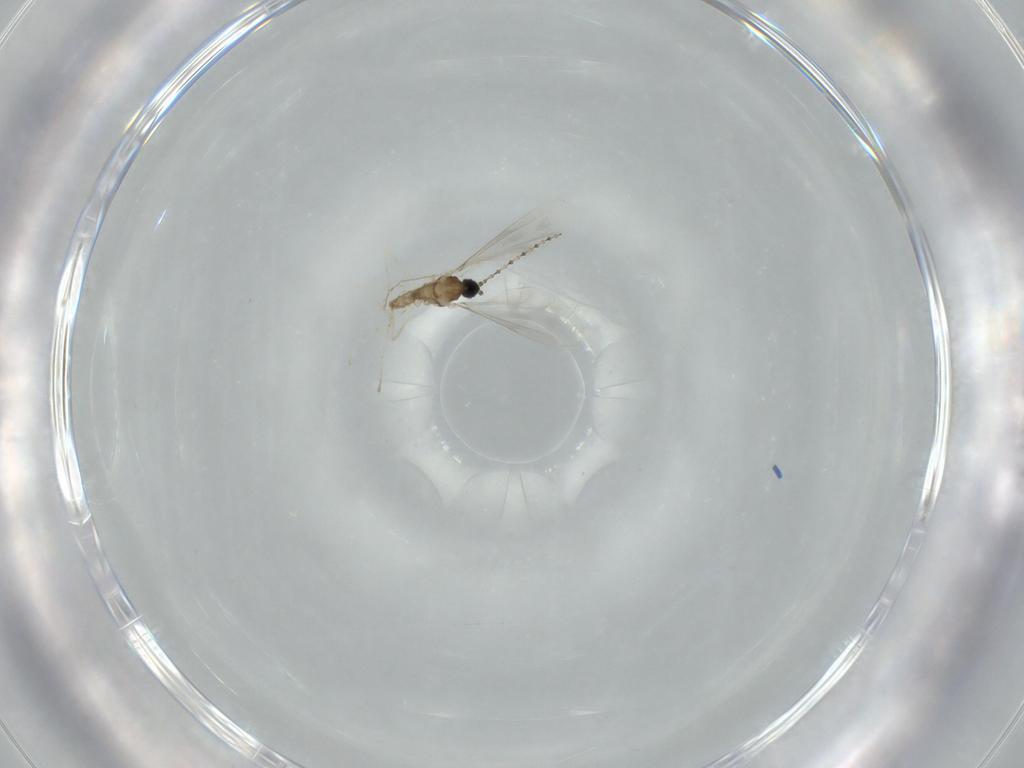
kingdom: Animalia
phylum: Arthropoda
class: Insecta
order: Diptera
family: Cecidomyiidae
